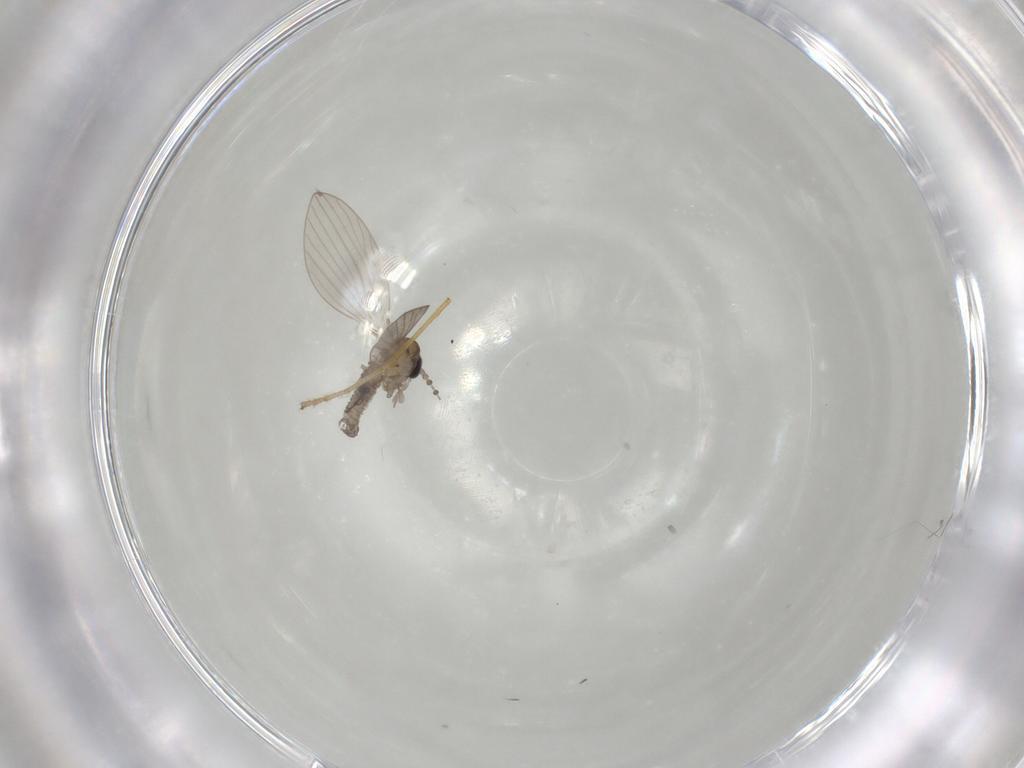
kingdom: Animalia
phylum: Arthropoda
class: Insecta
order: Diptera
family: Psychodidae
